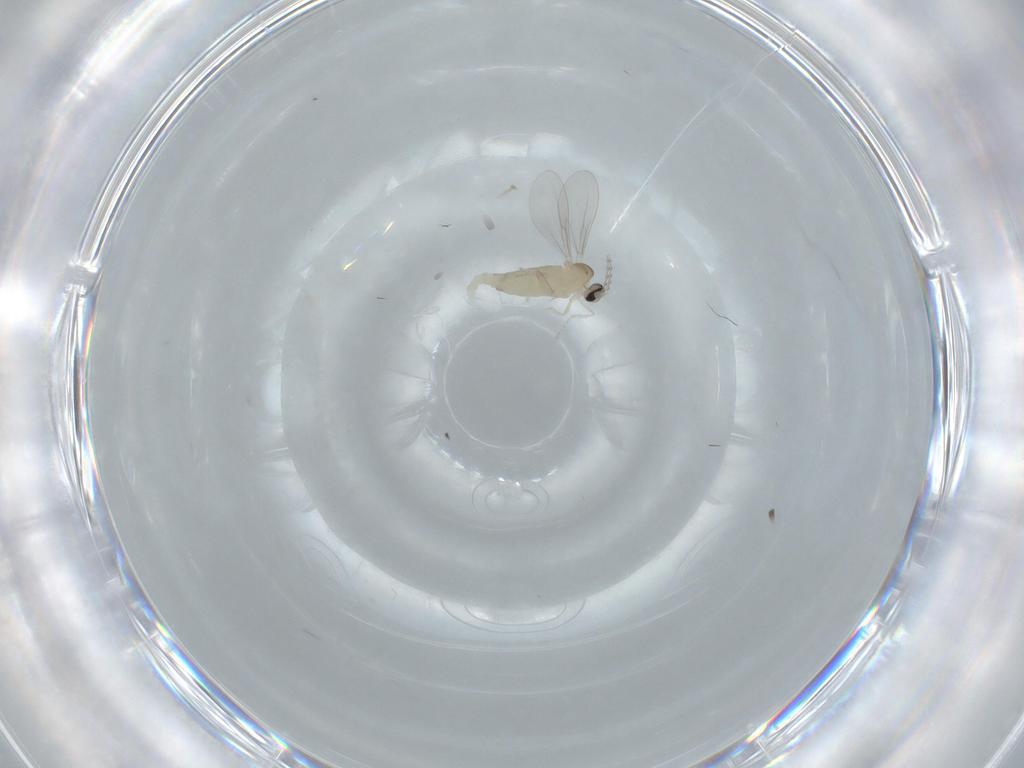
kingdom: Animalia
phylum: Arthropoda
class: Insecta
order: Diptera
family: Cecidomyiidae
